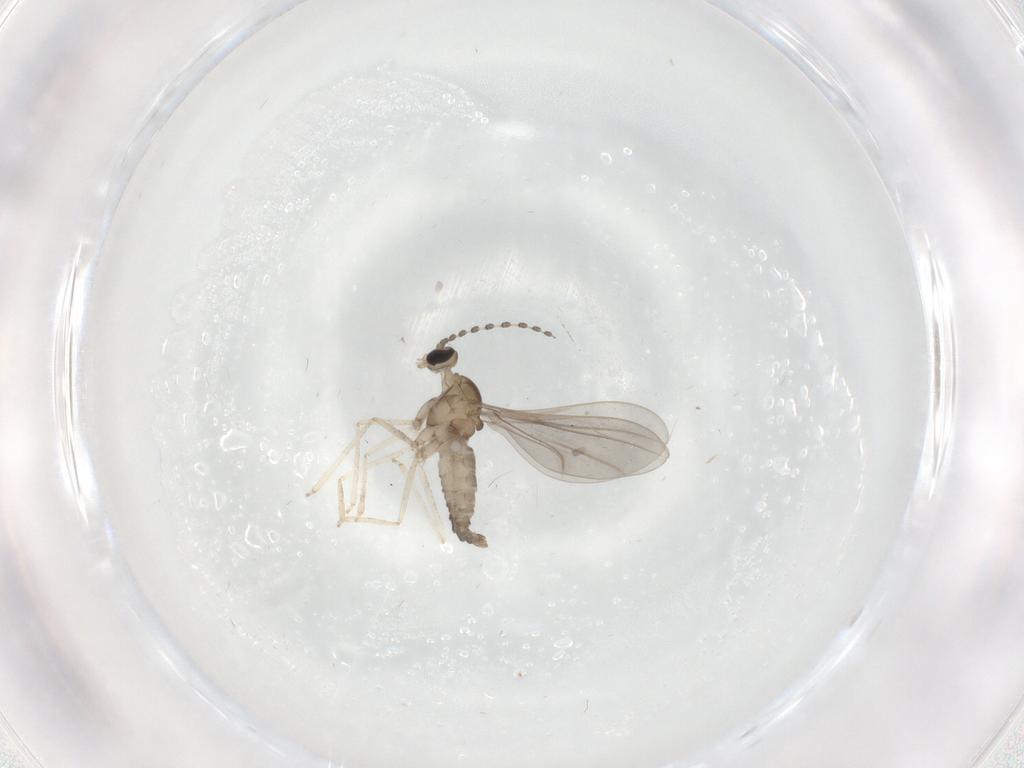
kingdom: Animalia
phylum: Arthropoda
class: Insecta
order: Diptera
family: Cecidomyiidae
